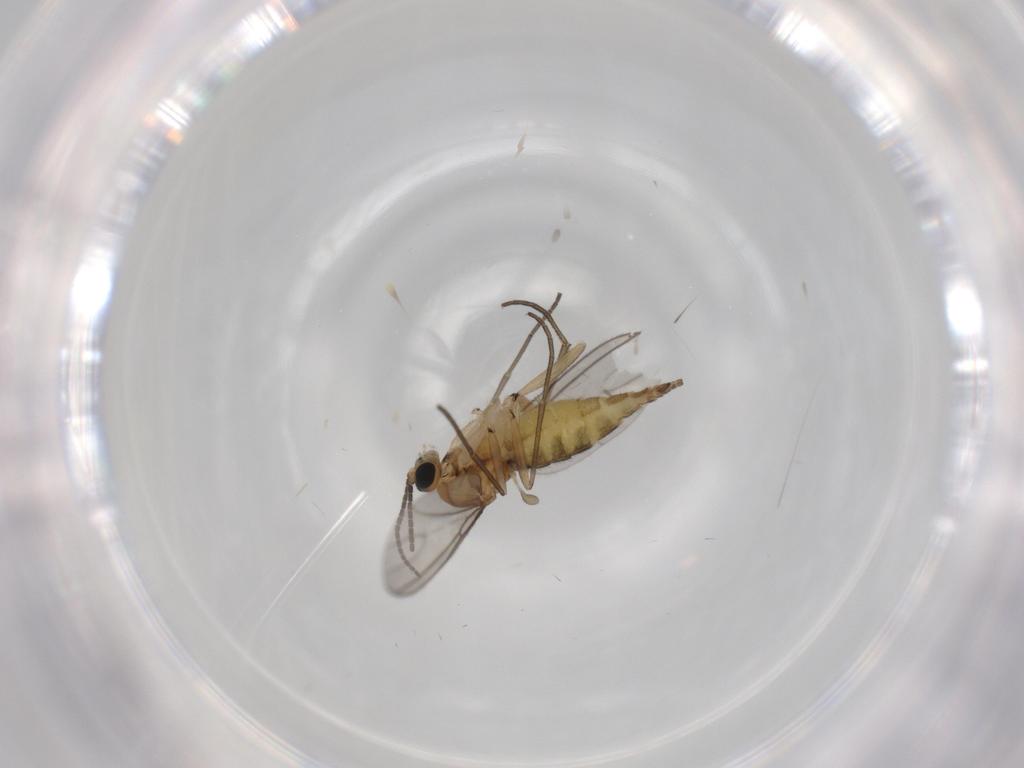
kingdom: Animalia
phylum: Arthropoda
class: Insecta
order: Diptera
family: Sciaridae
